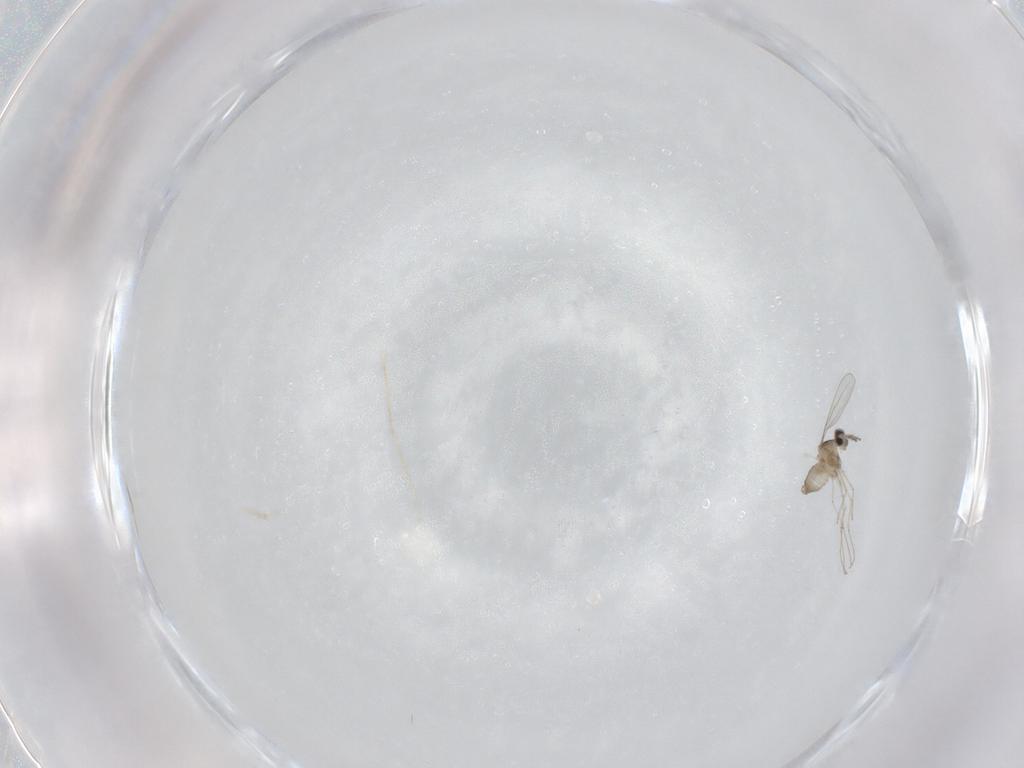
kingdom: Animalia
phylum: Arthropoda
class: Insecta
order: Diptera
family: Cecidomyiidae
